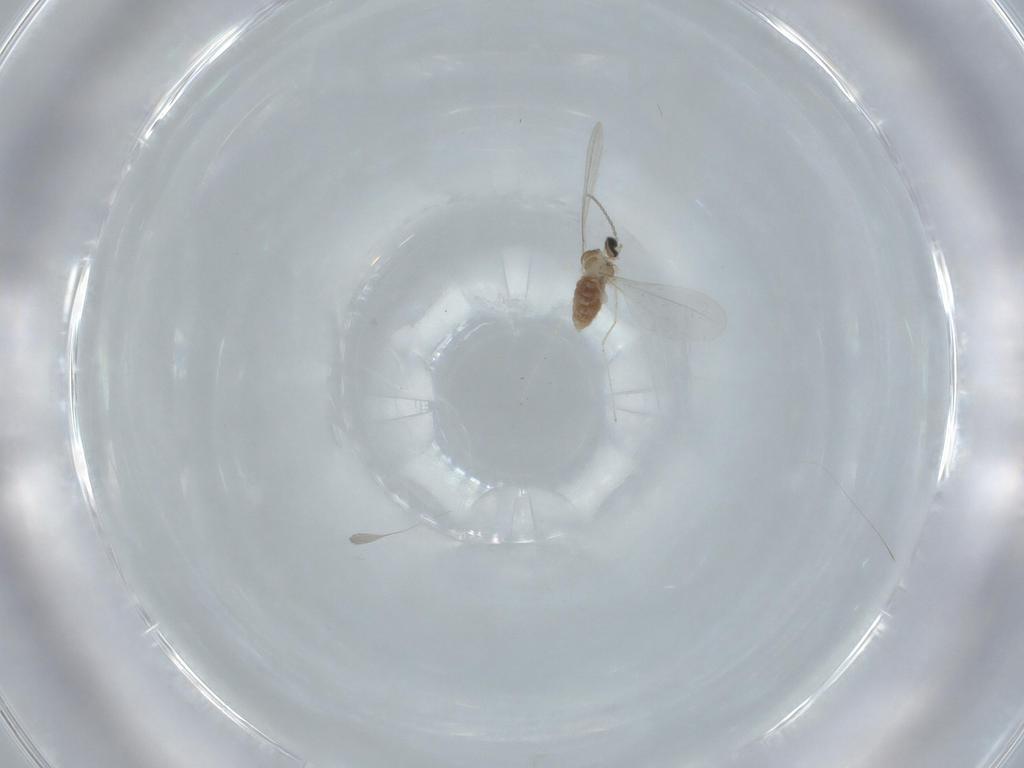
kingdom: Animalia
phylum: Arthropoda
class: Insecta
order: Diptera
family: Cecidomyiidae
